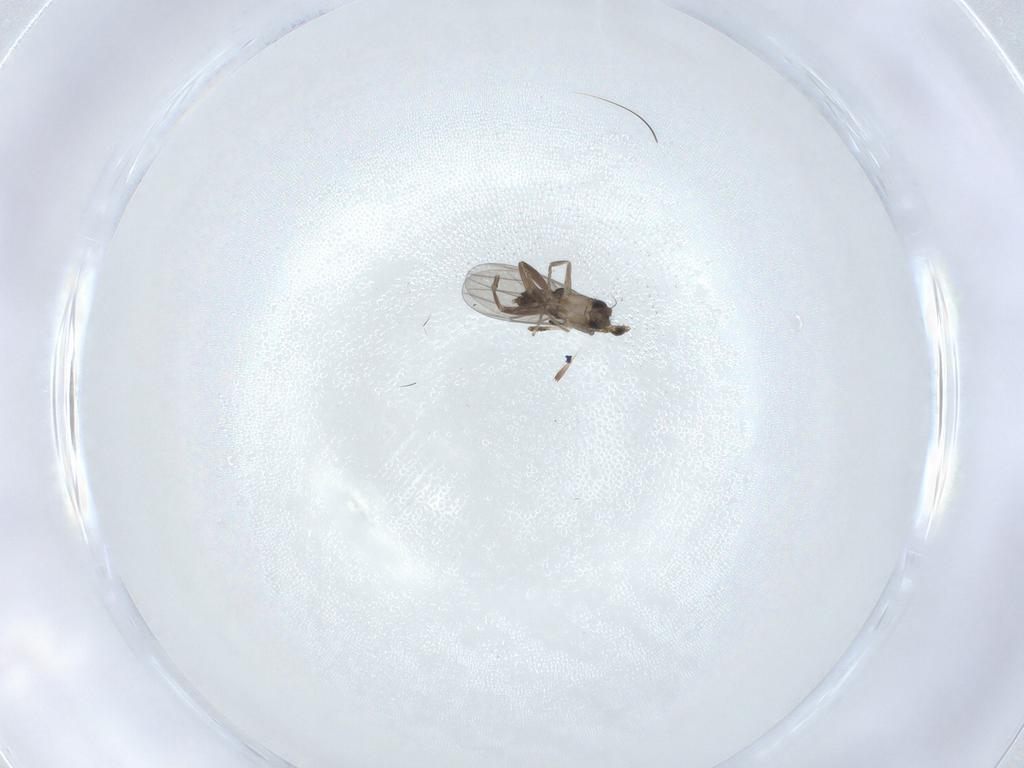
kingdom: Animalia
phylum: Arthropoda
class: Insecta
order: Diptera
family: Phoridae
